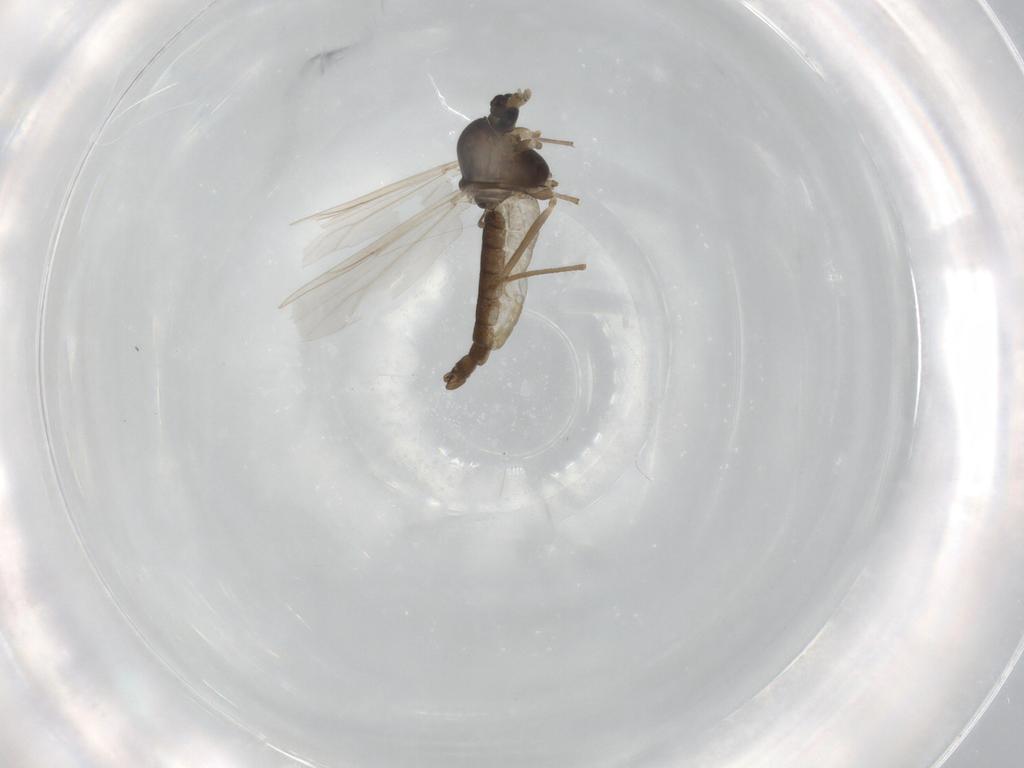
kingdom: Animalia
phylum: Arthropoda
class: Insecta
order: Diptera
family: Chironomidae
